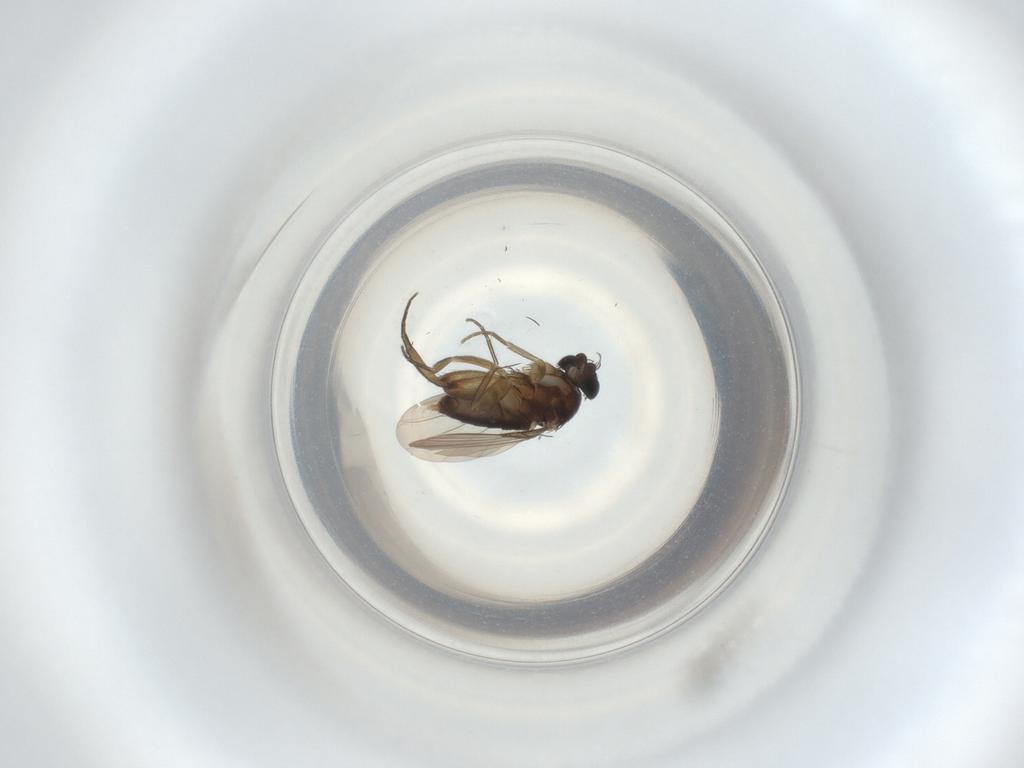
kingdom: Animalia
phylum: Arthropoda
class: Insecta
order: Diptera
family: Phoridae
